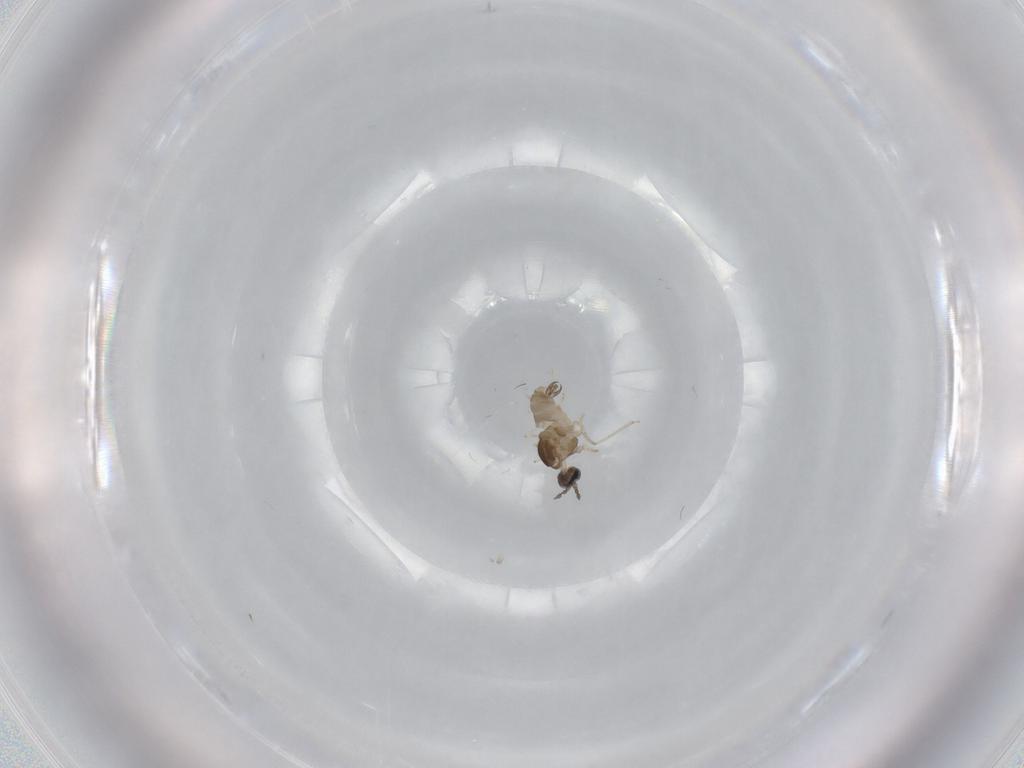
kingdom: Animalia
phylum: Arthropoda
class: Insecta
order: Diptera
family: Cecidomyiidae
